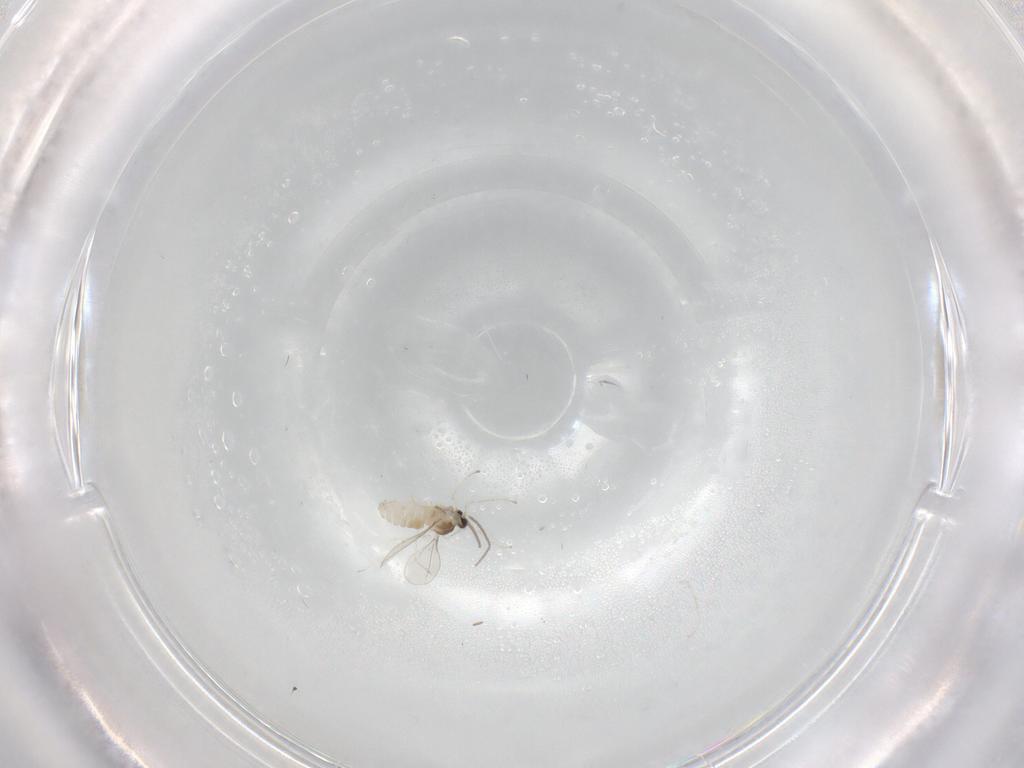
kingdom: Animalia
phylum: Arthropoda
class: Insecta
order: Diptera
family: Cecidomyiidae
